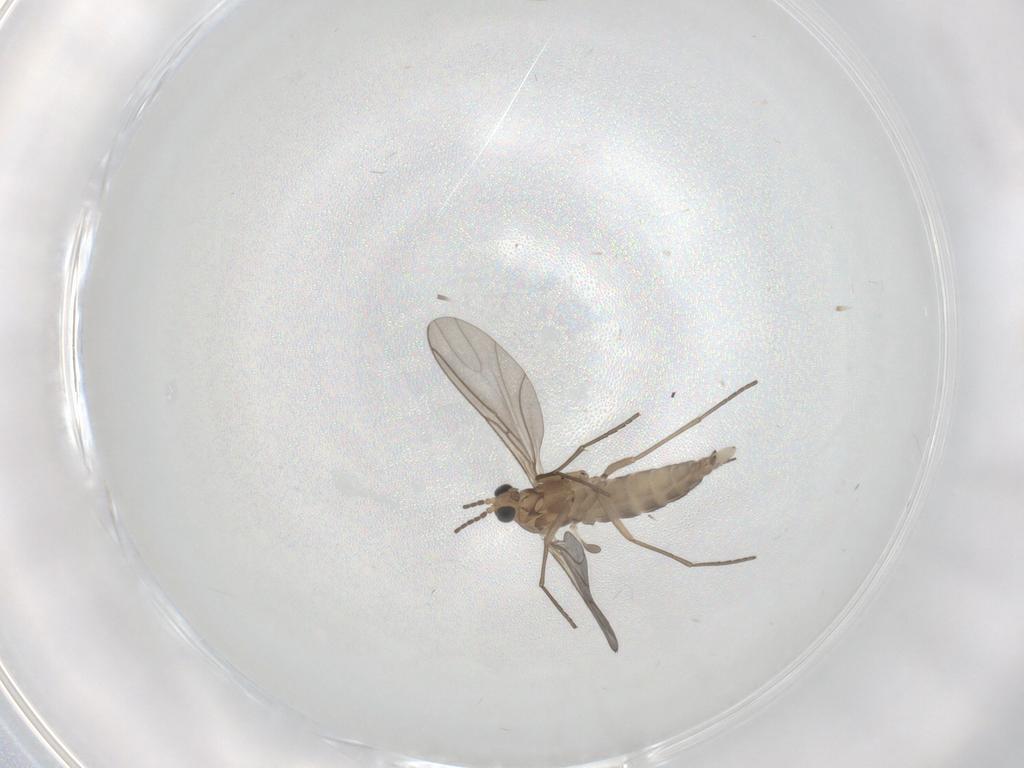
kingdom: Animalia
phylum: Arthropoda
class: Insecta
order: Diptera
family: Sciaridae
